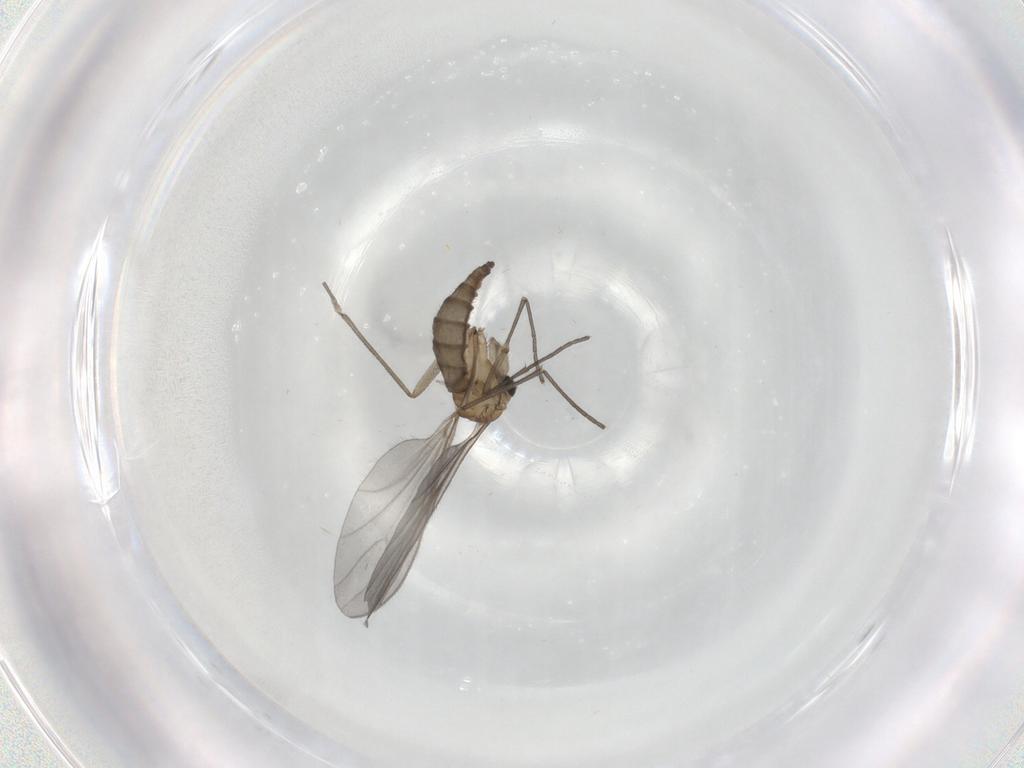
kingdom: Animalia
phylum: Arthropoda
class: Insecta
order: Diptera
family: Sciaridae
